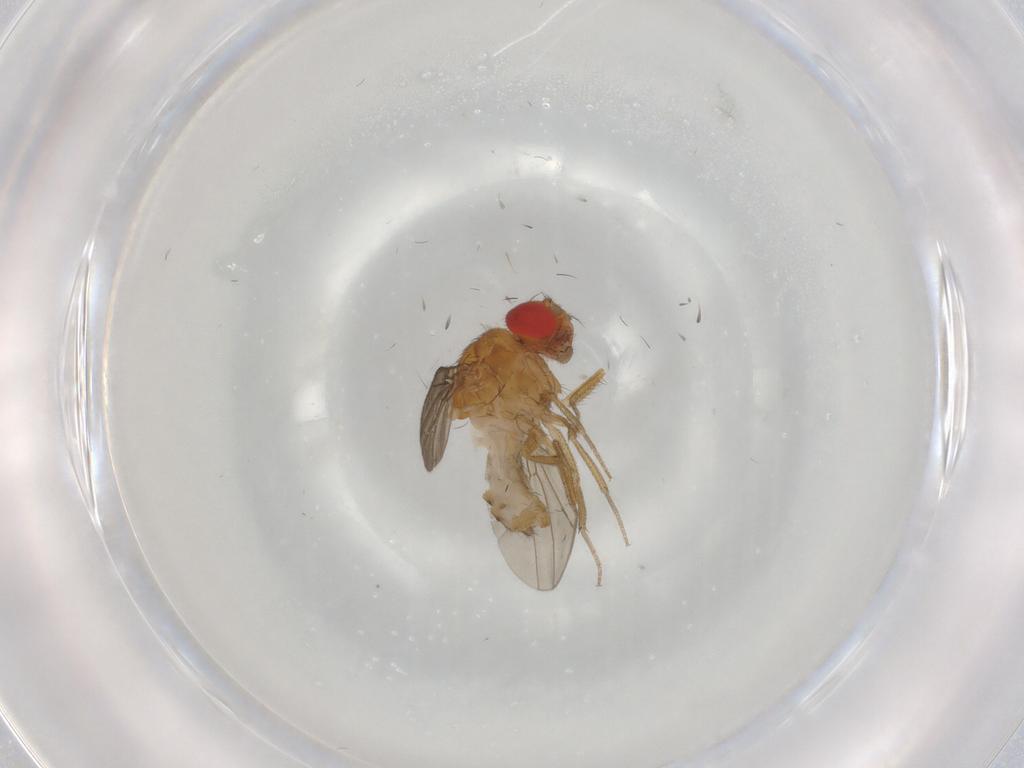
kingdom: Animalia
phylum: Arthropoda
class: Insecta
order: Diptera
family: Drosophilidae
